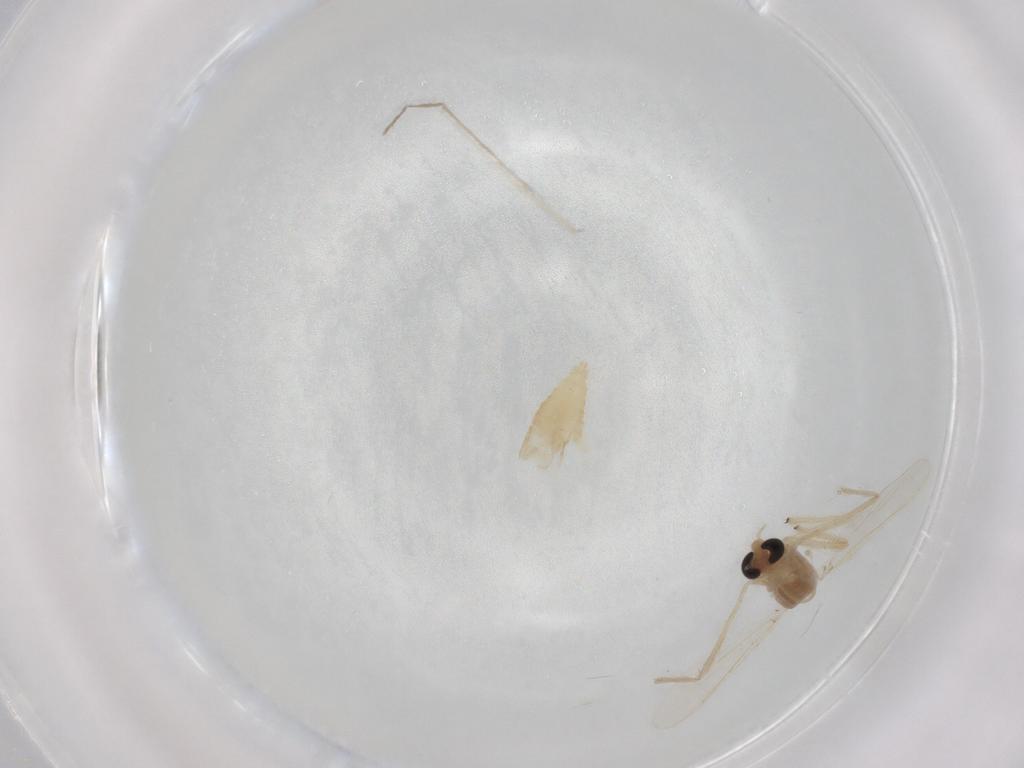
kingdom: Animalia
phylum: Arthropoda
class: Insecta
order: Diptera
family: Chironomidae
